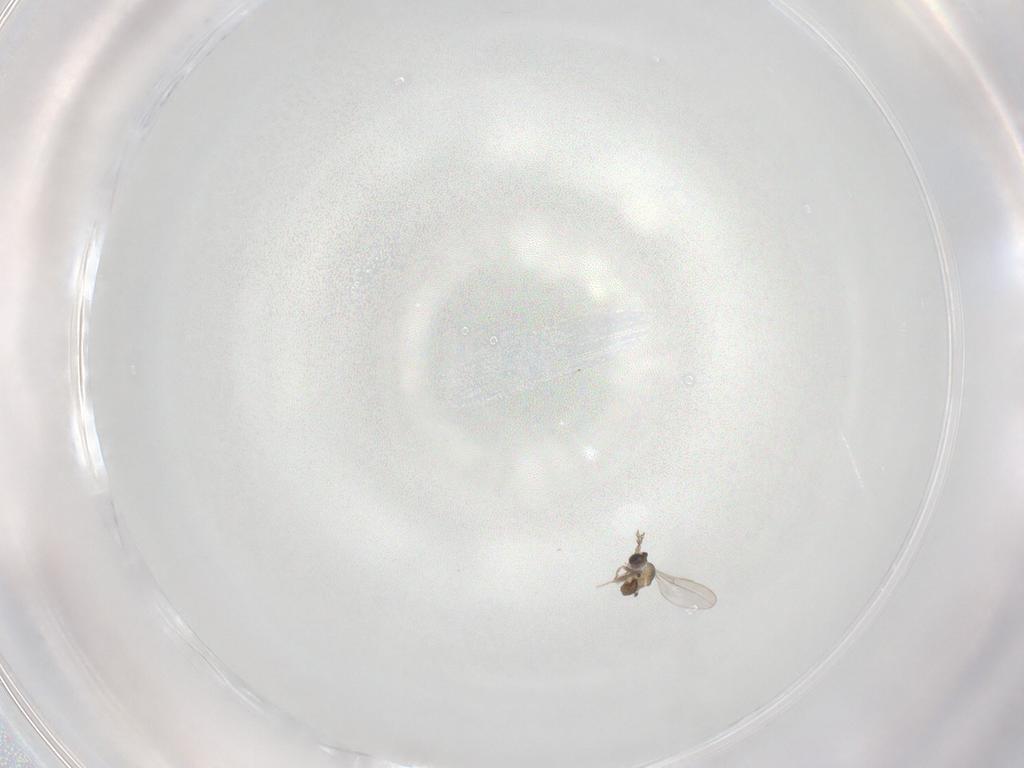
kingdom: Animalia
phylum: Arthropoda
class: Insecta
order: Diptera
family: Cecidomyiidae
